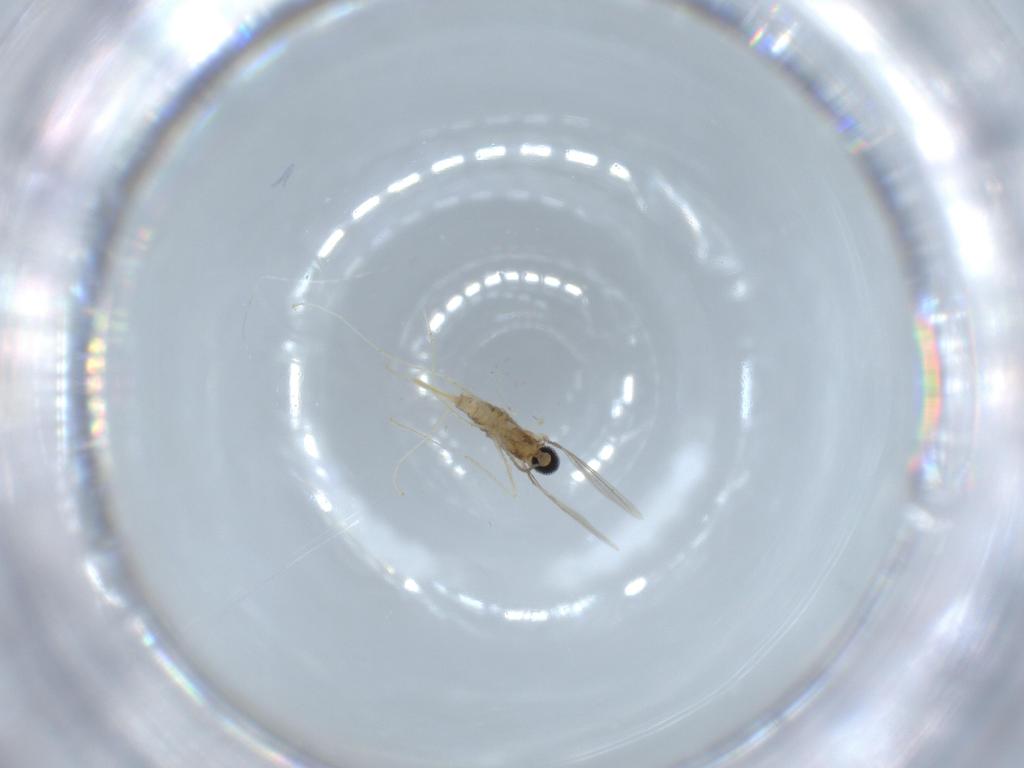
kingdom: Animalia
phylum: Arthropoda
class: Insecta
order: Diptera
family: Cecidomyiidae
